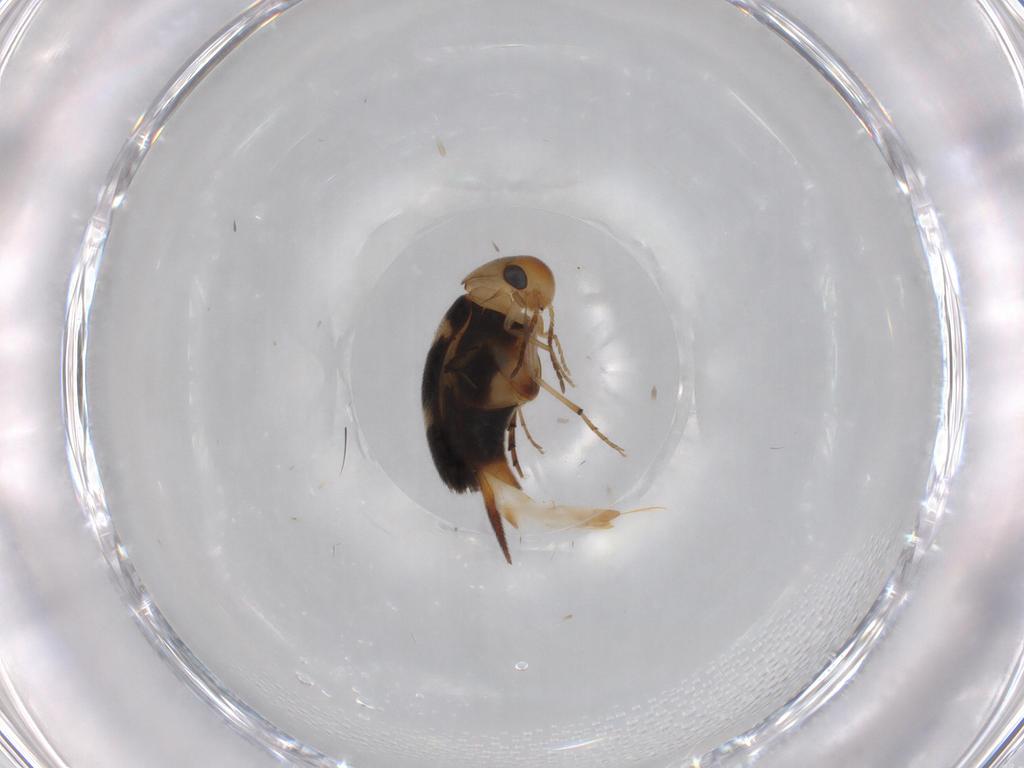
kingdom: Animalia
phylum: Arthropoda
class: Insecta
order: Coleoptera
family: Mordellidae
